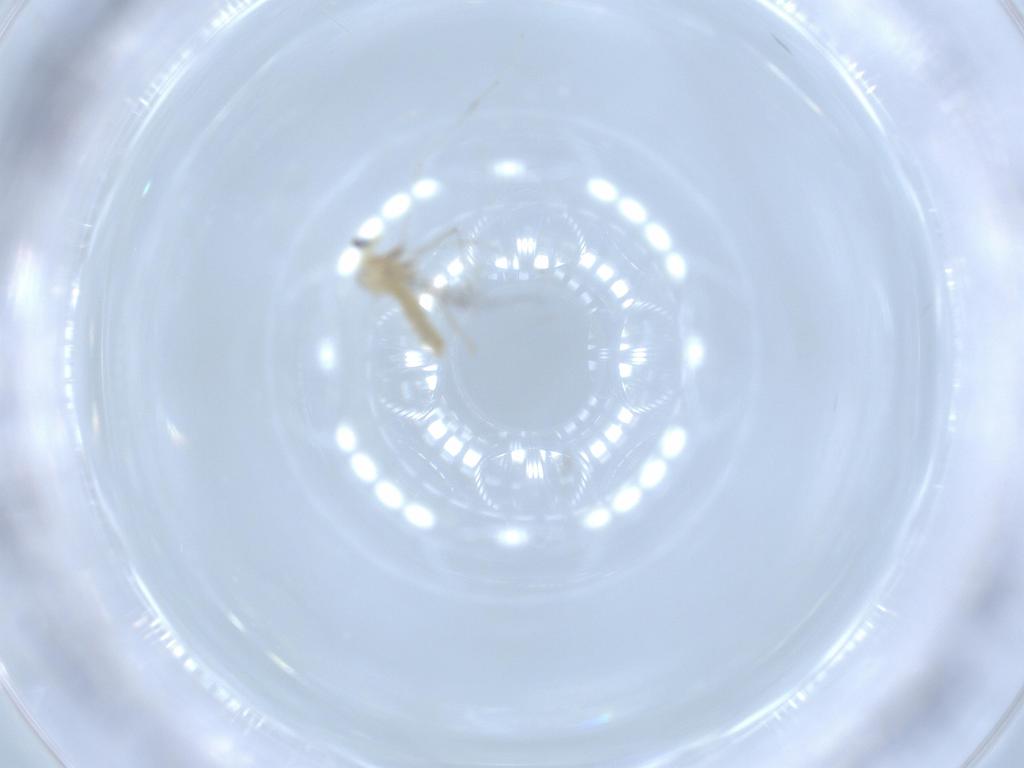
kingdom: Animalia
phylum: Arthropoda
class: Insecta
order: Diptera
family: Cecidomyiidae
